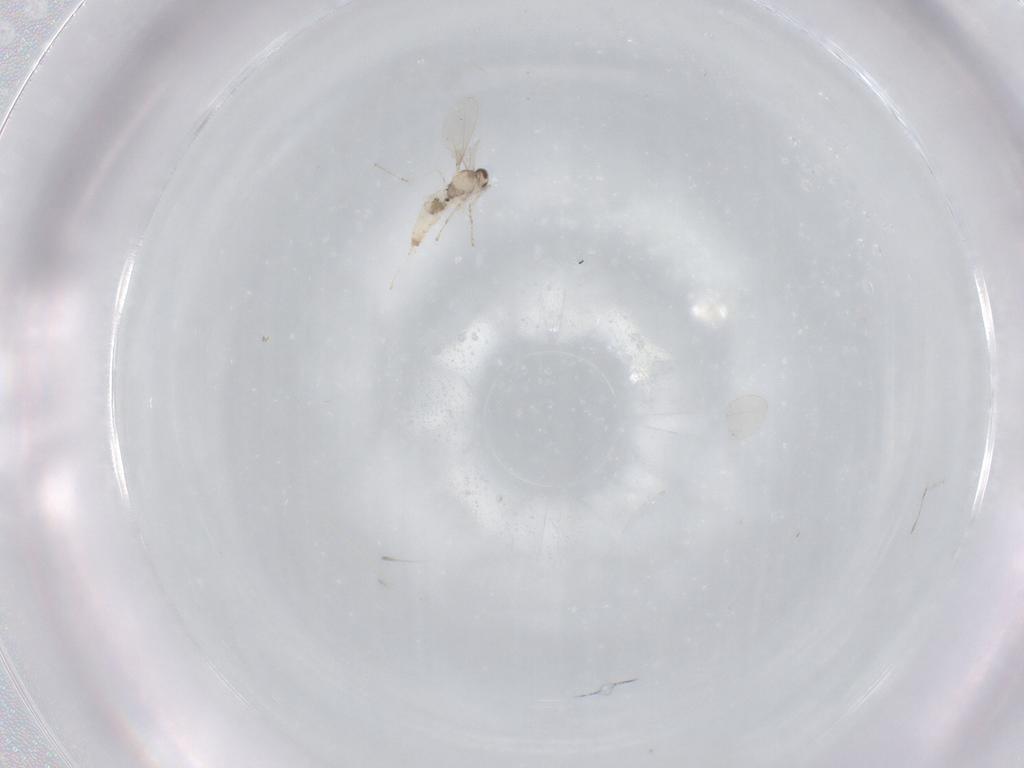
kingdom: Animalia
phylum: Arthropoda
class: Insecta
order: Diptera
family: Cecidomyiidae
